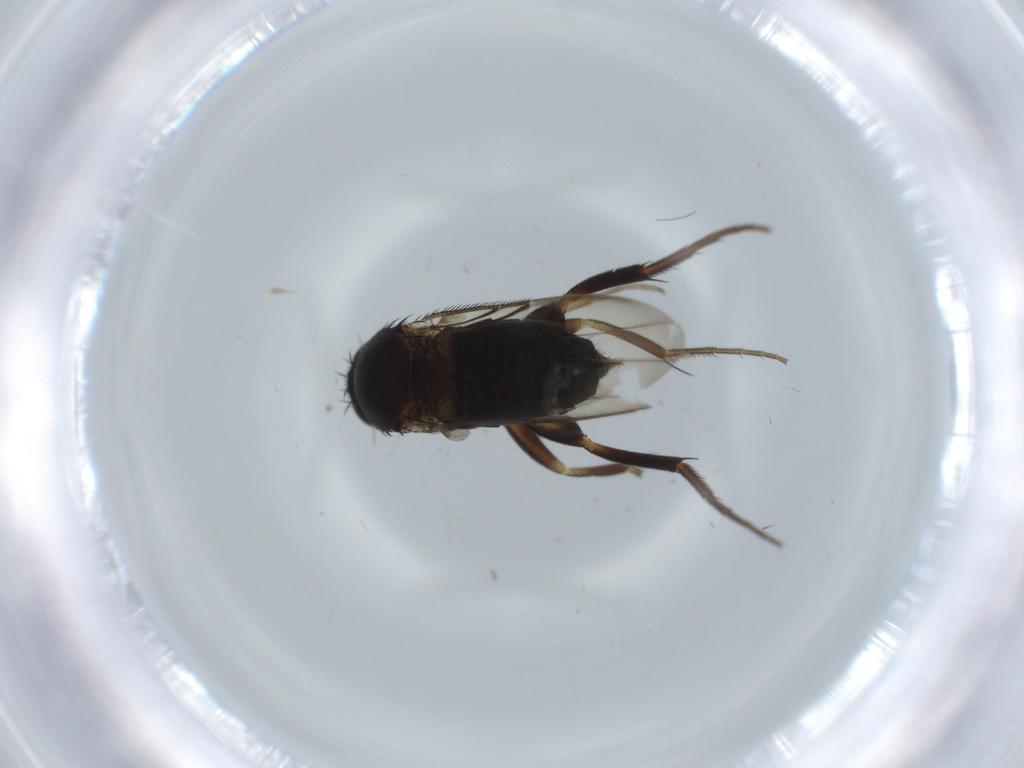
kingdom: Animalia
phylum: Arthropoda
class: Insecta
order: Diptera
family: Phoridae
